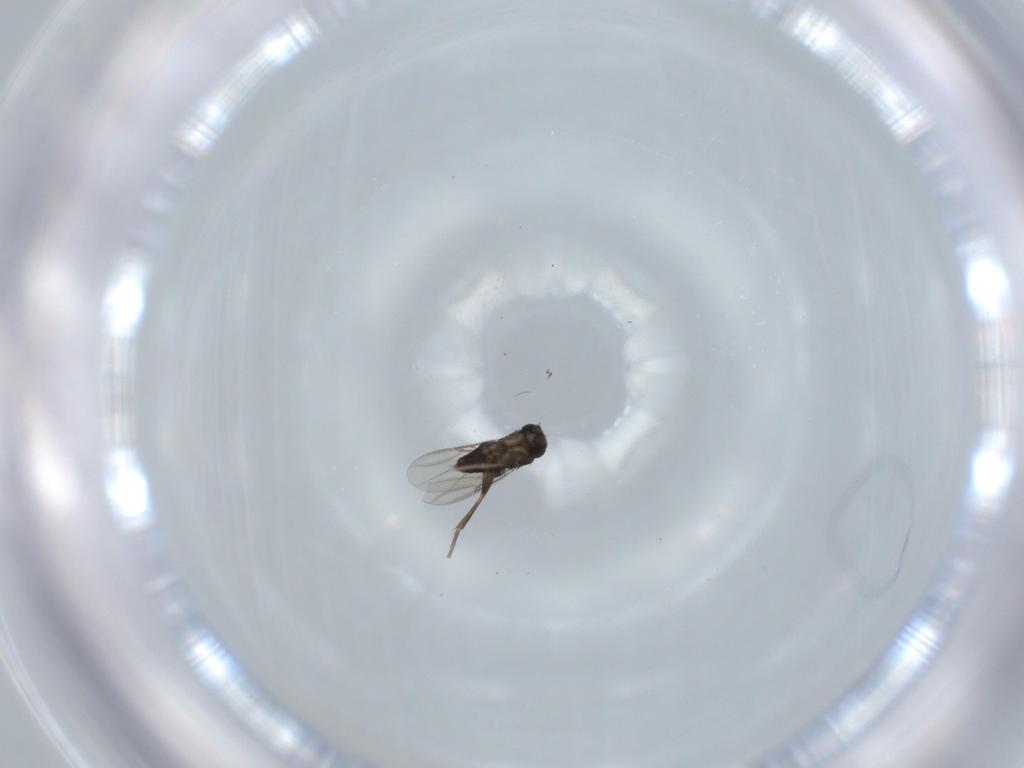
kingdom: Animalia
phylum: Arthropoda
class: Insecta
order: Diptera
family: Phoridae
